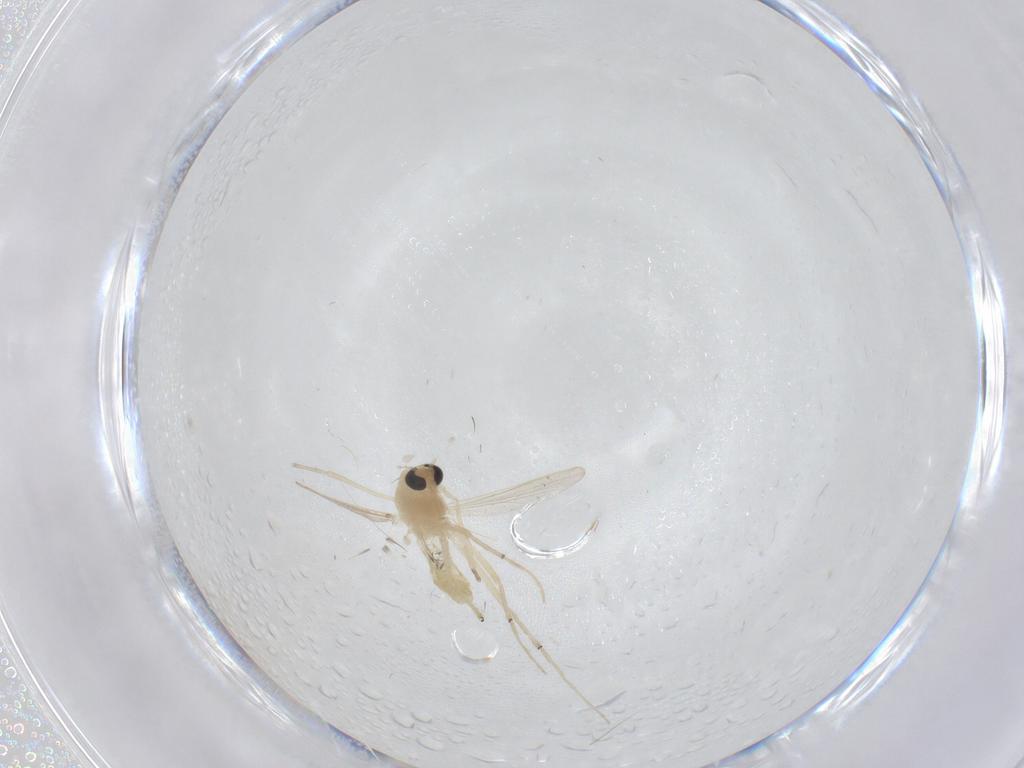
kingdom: Animalia
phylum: Arthropoda
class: Insecta
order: Diptera
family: Chironomidae
